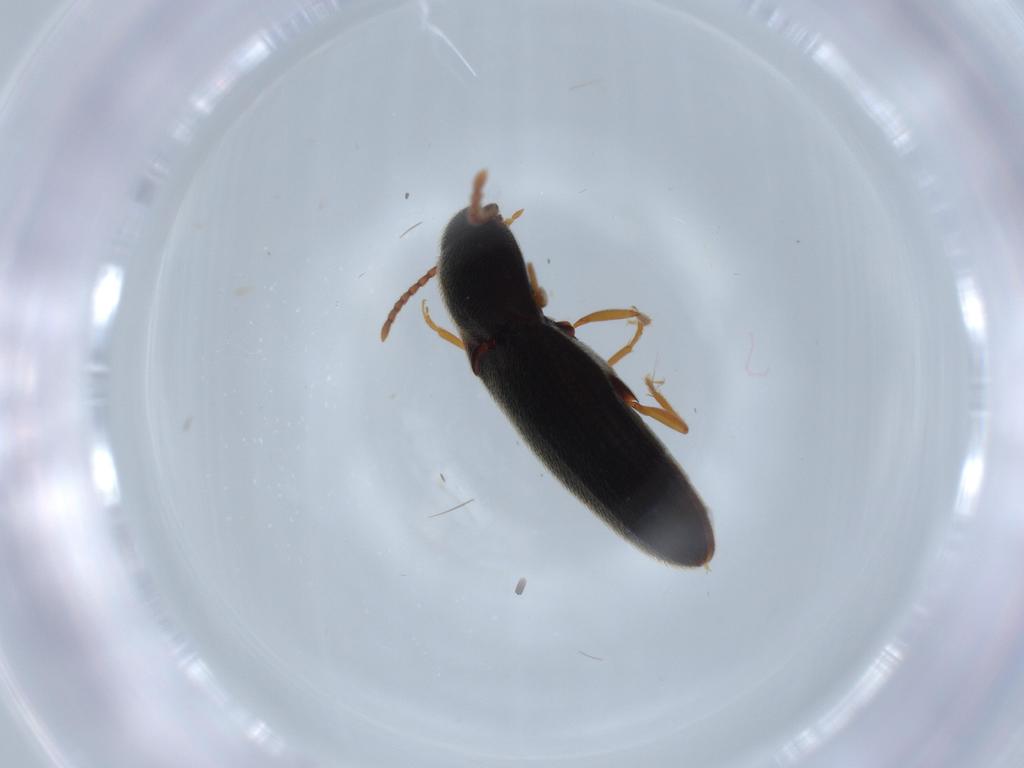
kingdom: Animalia
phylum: Arthropoda
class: Insecta
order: Coleoptera
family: Elateridae
